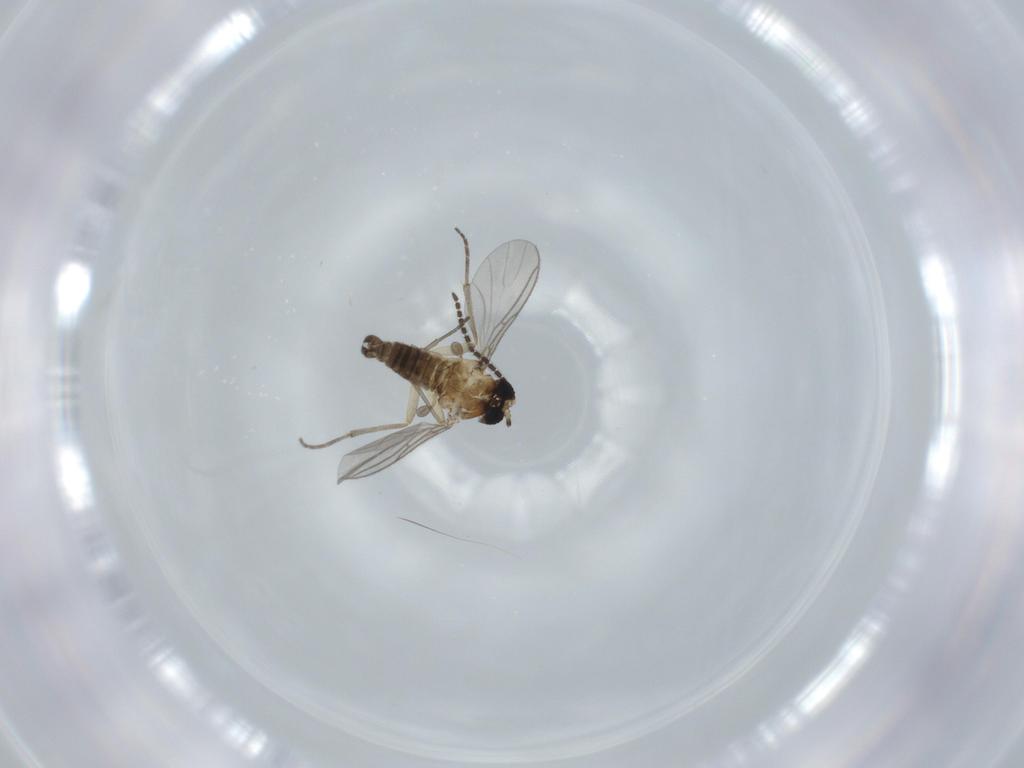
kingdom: Animalia
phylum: Arthropoda
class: Insecta
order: Diptera
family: Sciaridae
